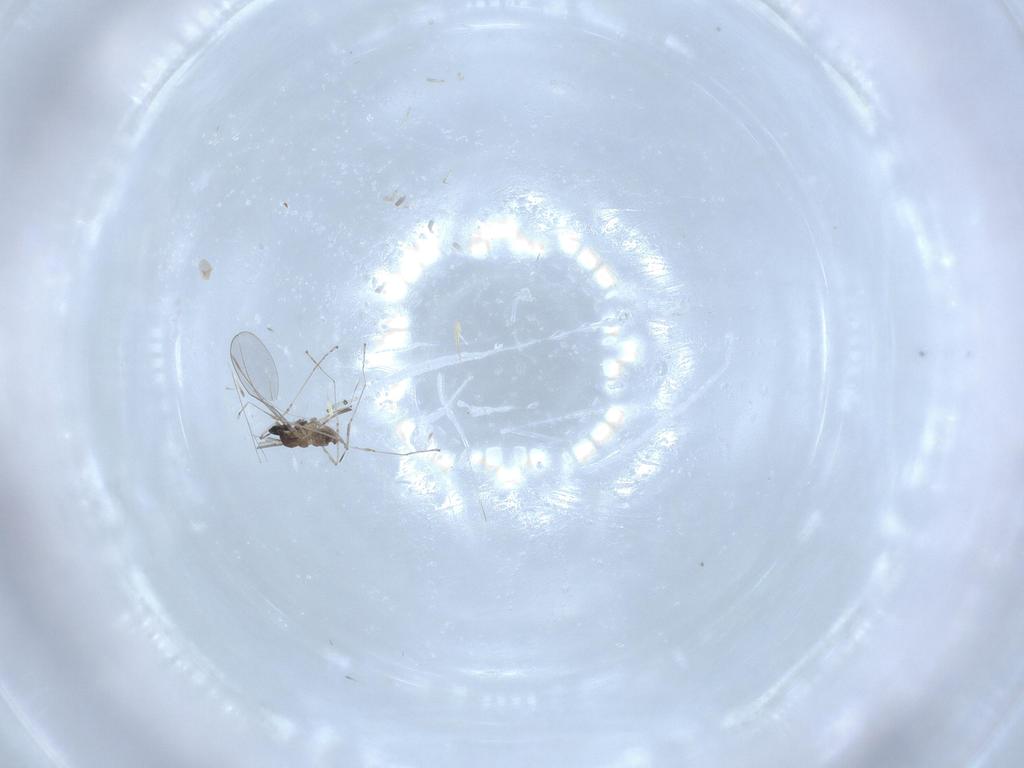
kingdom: Animalia
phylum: Arthropoda
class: Insecta
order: Diptera
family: Cecidomyiidae
